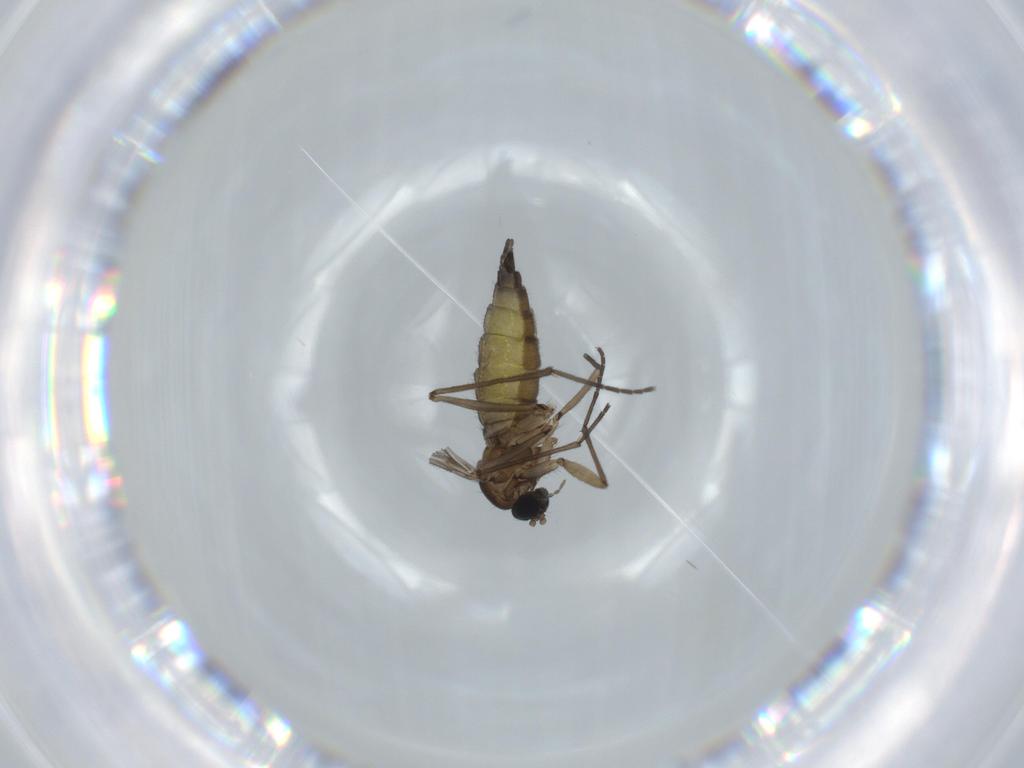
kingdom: Animalia
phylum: Arthropoda
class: Insecta
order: Diptera
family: Sciaridae
